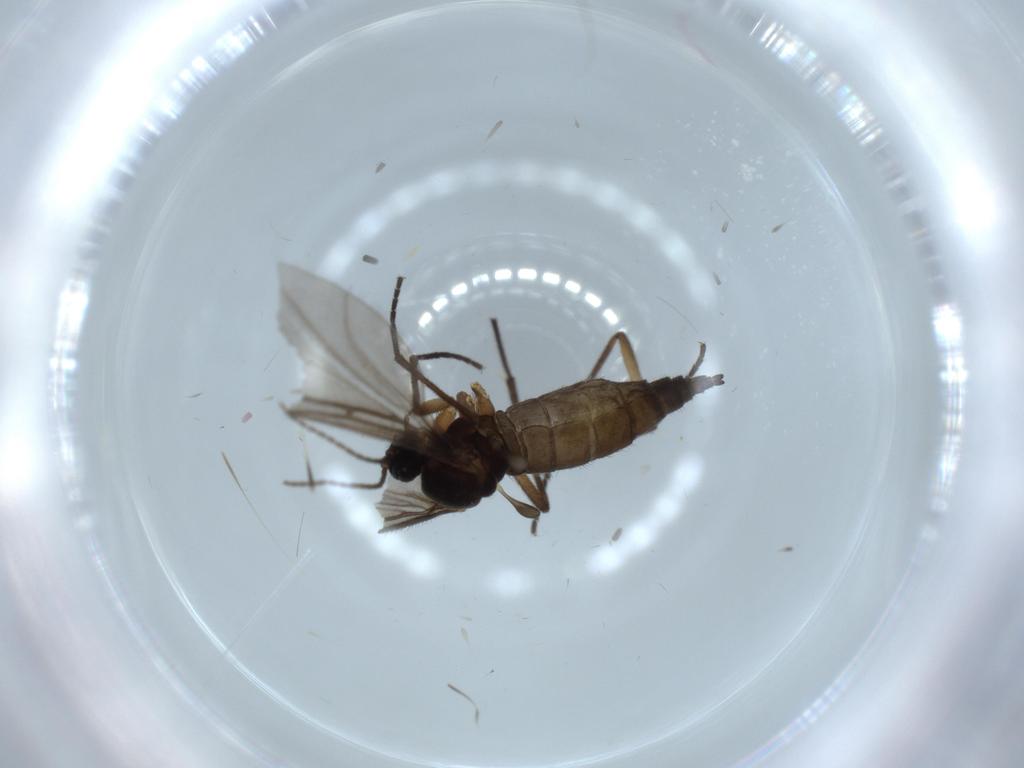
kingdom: Animalia
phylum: Arthropoda
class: Insecta
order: Diptera
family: Sciaridae
